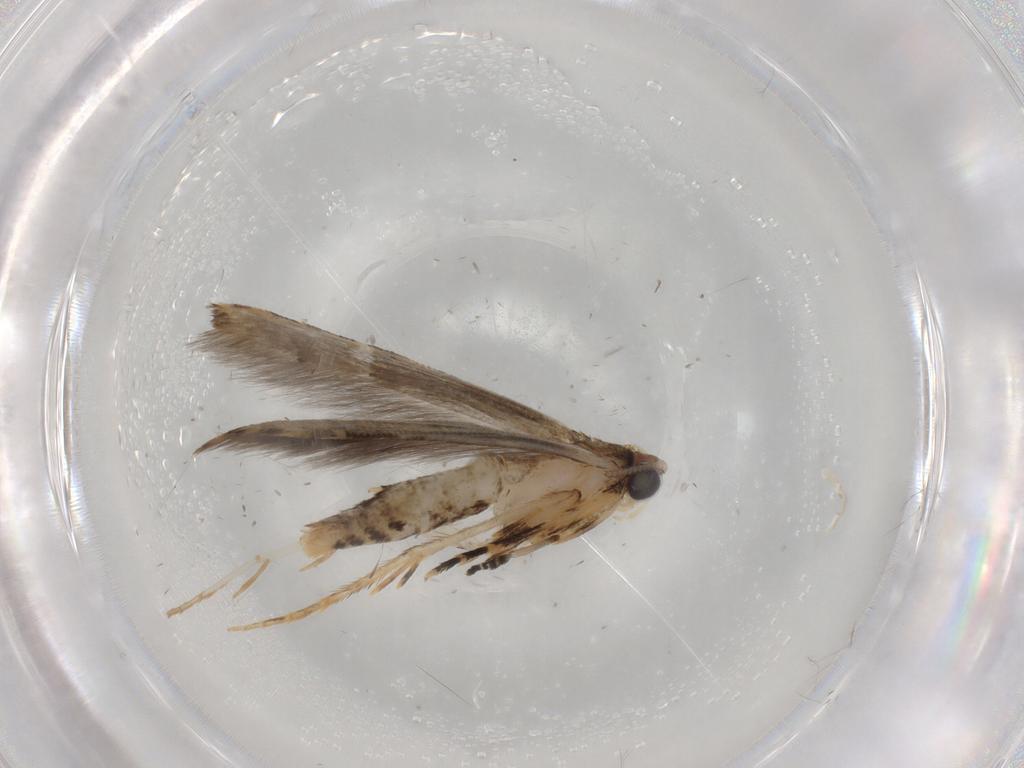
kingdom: Animalia
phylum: Arthropoda
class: Insecta
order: Lepidoptera
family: Tineidae
